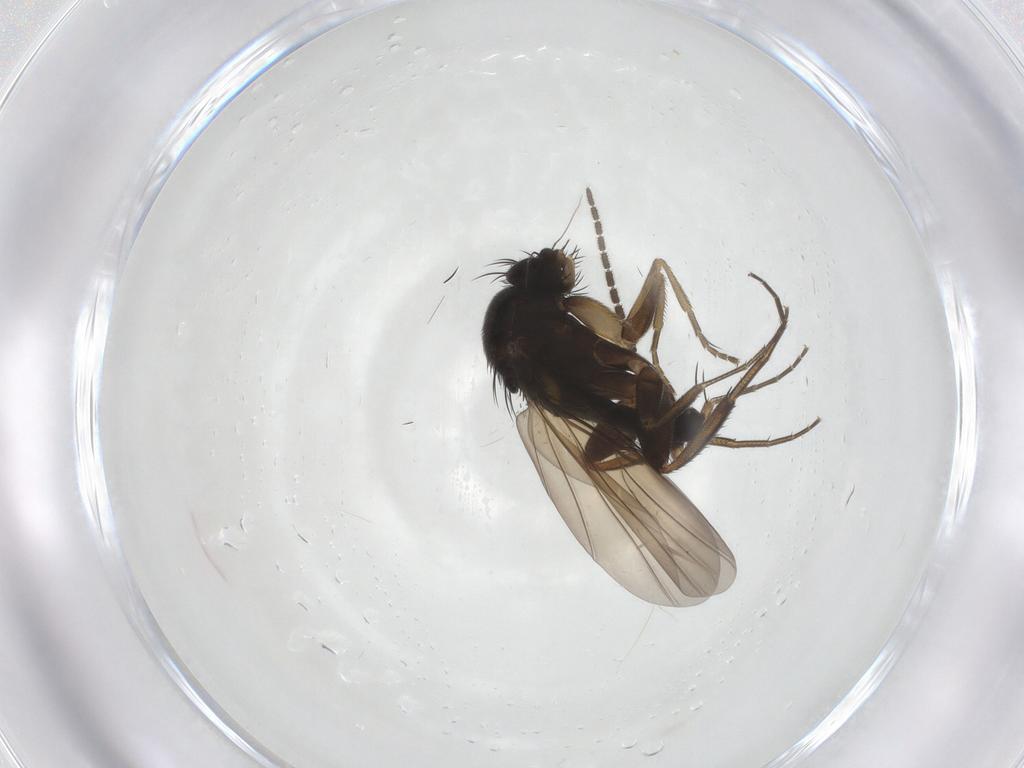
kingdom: Animalia
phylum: Arthropoda
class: Insecta
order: Diptera
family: Phoridae
